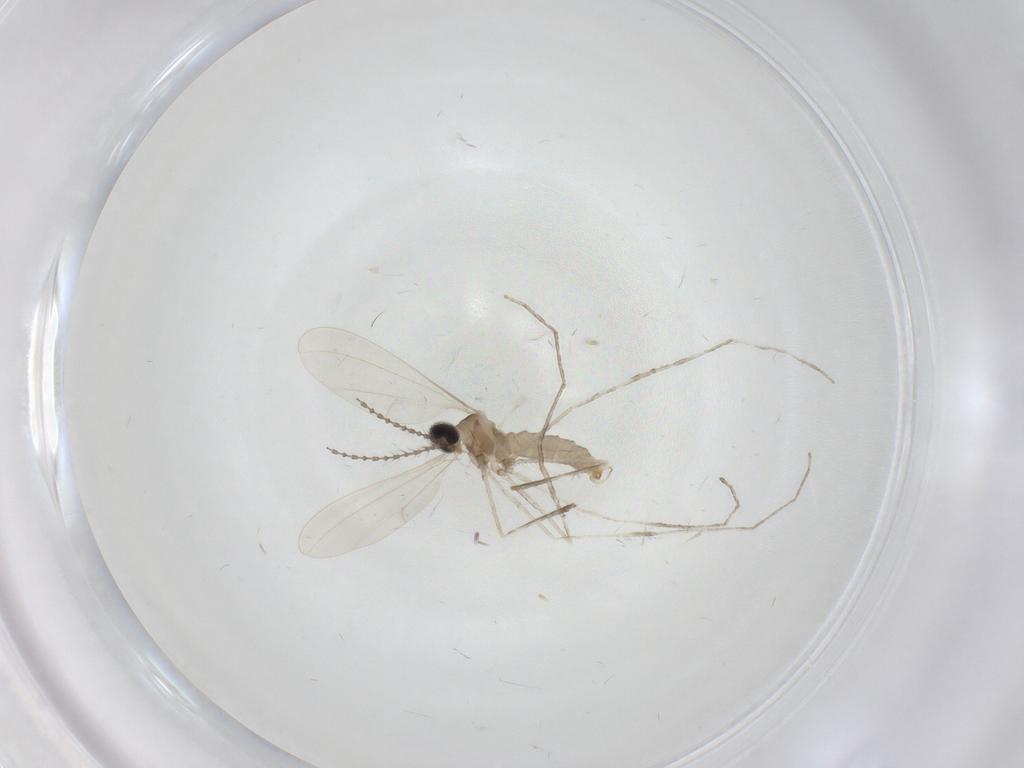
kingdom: Animalia
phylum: Arthropoda
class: Insecta
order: Diptera
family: Cecidomyiidae
